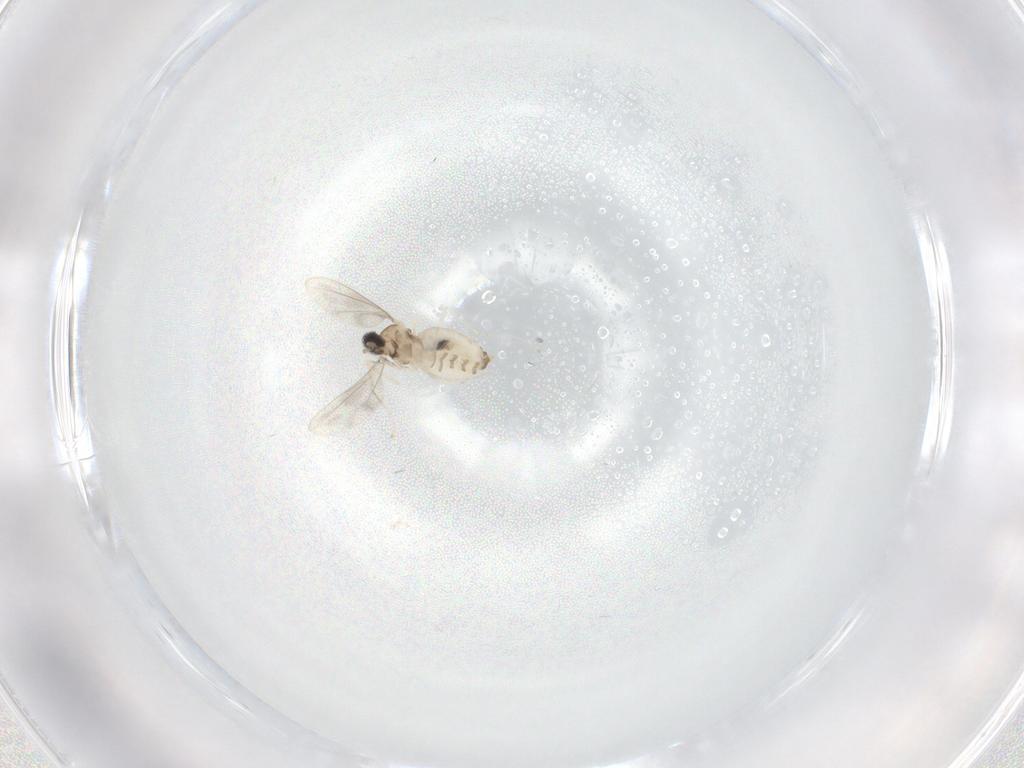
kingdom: Animalia
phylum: Arthropoda
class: Insecta
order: Diptera
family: Cecidomyiidae
